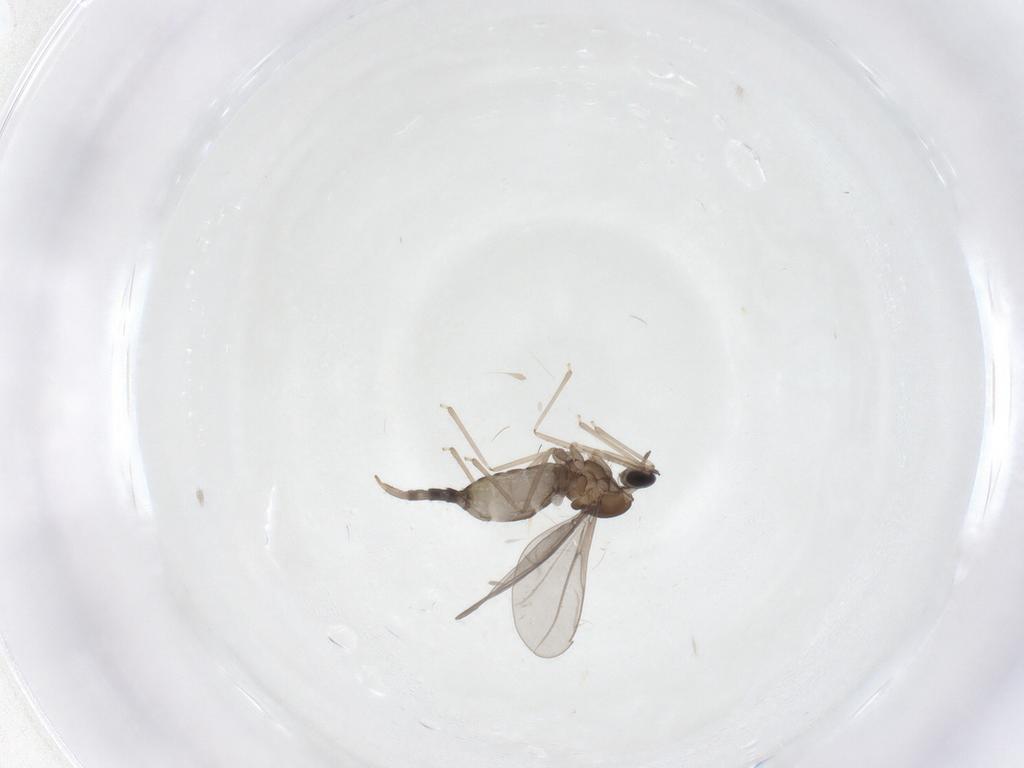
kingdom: Animalia
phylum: Arthropoda
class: Insecta
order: Diptera
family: Cecidomyiidae
